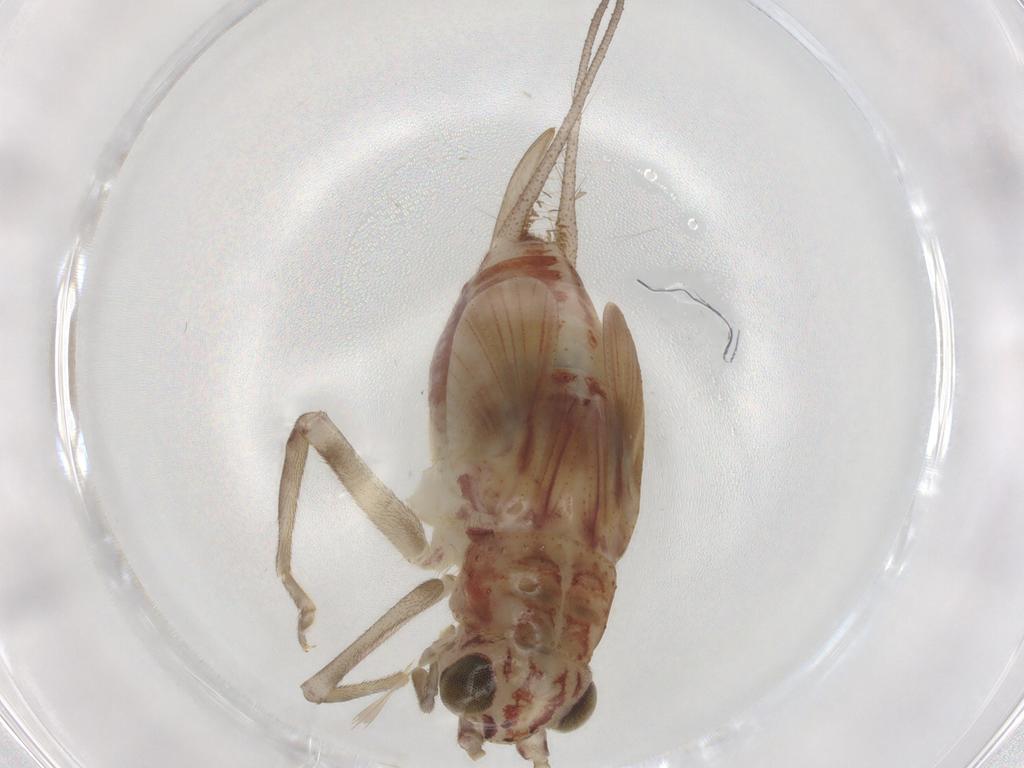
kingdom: Animalia
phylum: Arthropoda
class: Insecta
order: Orthoptera
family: Trigonidiidae
